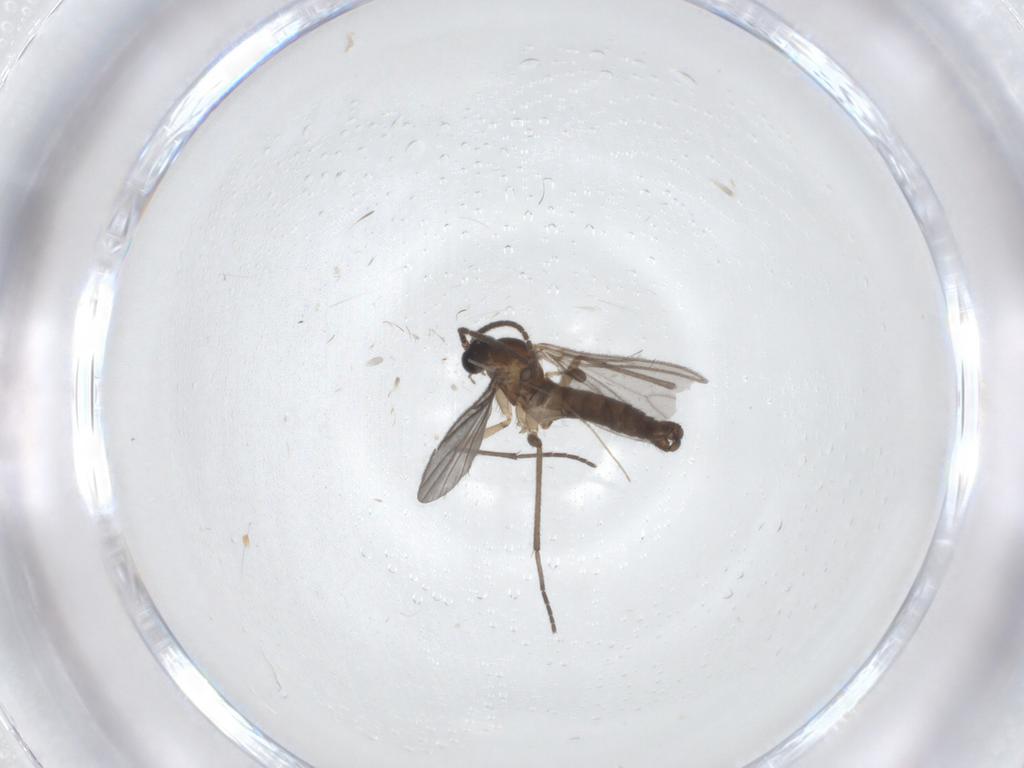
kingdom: Animalia
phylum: Arthropoda
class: Insecta
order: Diptera
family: Sciaridae
